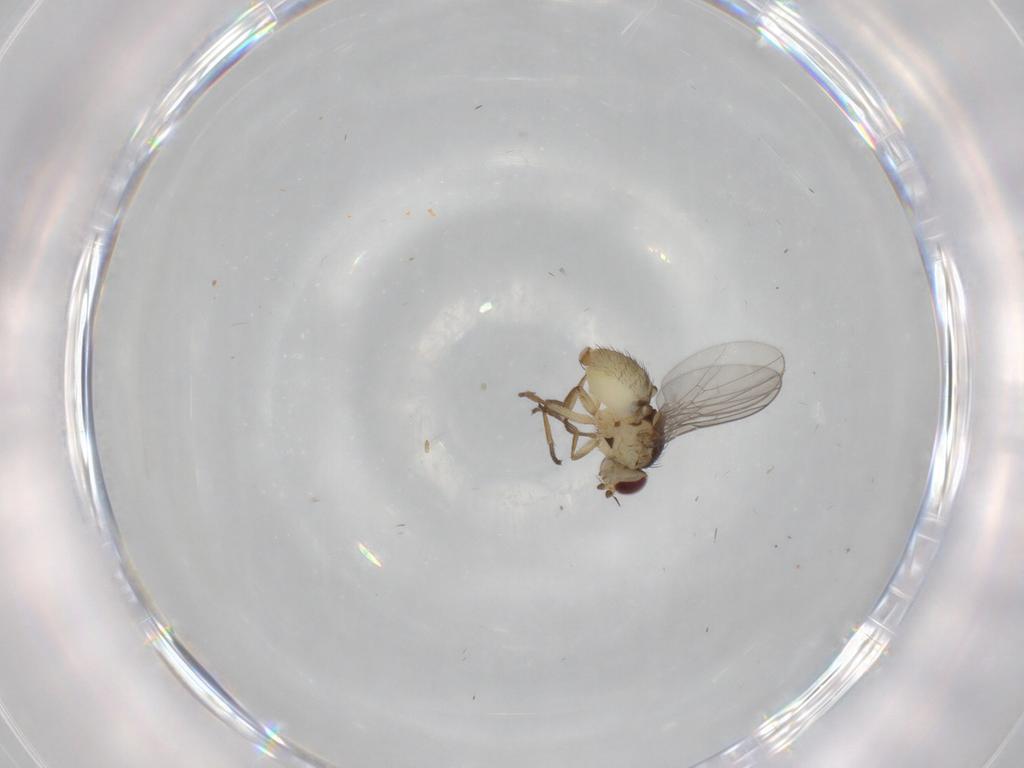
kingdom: Animalia
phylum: Arthropoda
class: Insecta
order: Diptera
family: Agromyzidae
